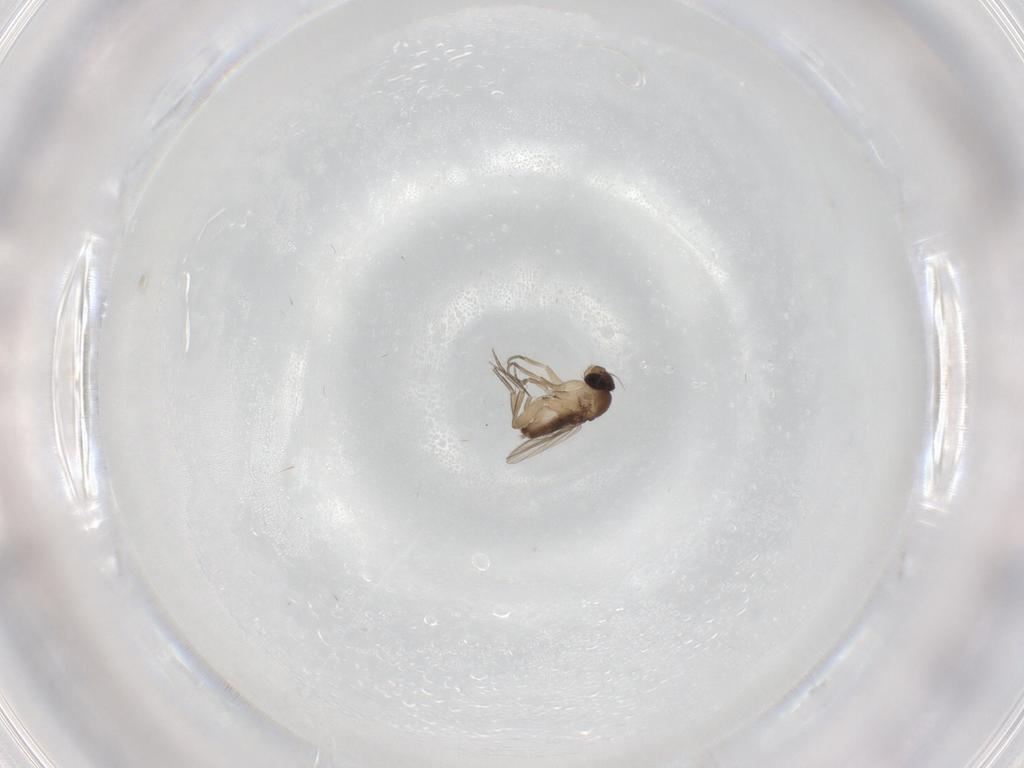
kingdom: Animalia
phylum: Arthropoda
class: Insecta
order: Diptera
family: Phoridae
